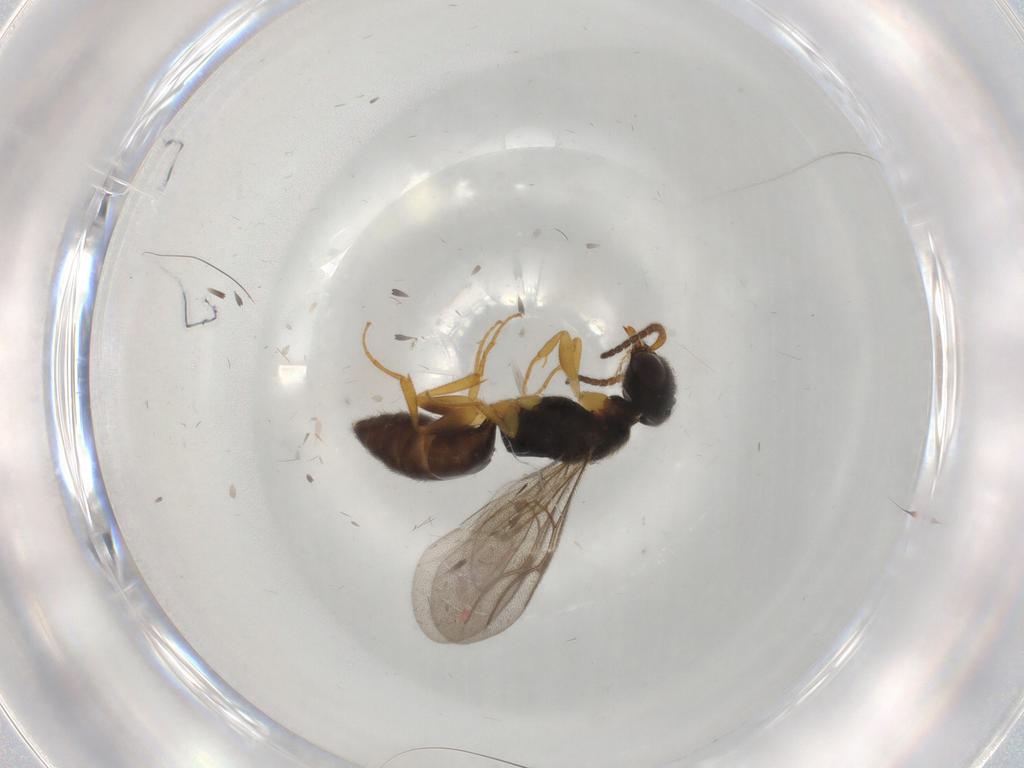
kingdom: Animalia
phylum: Arthropoda
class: Insecta
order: Hymenoptera
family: Bethylidae
